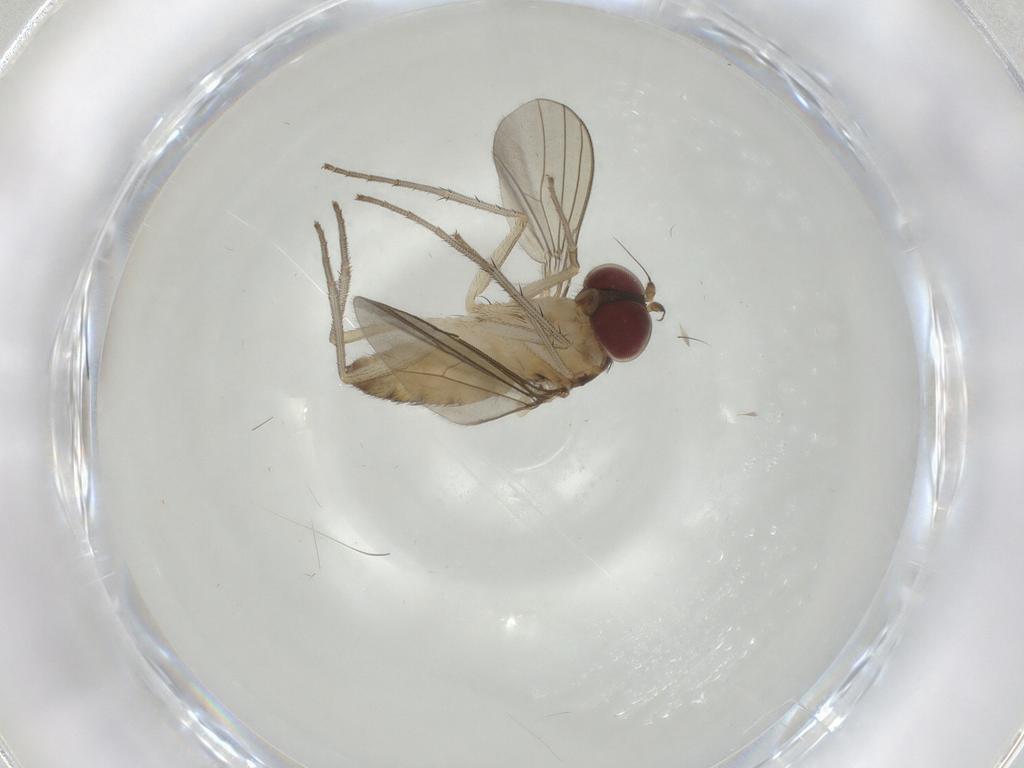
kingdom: Animalia
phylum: Arthropoda
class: Insecta
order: Diptera
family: Dolichopodidae
